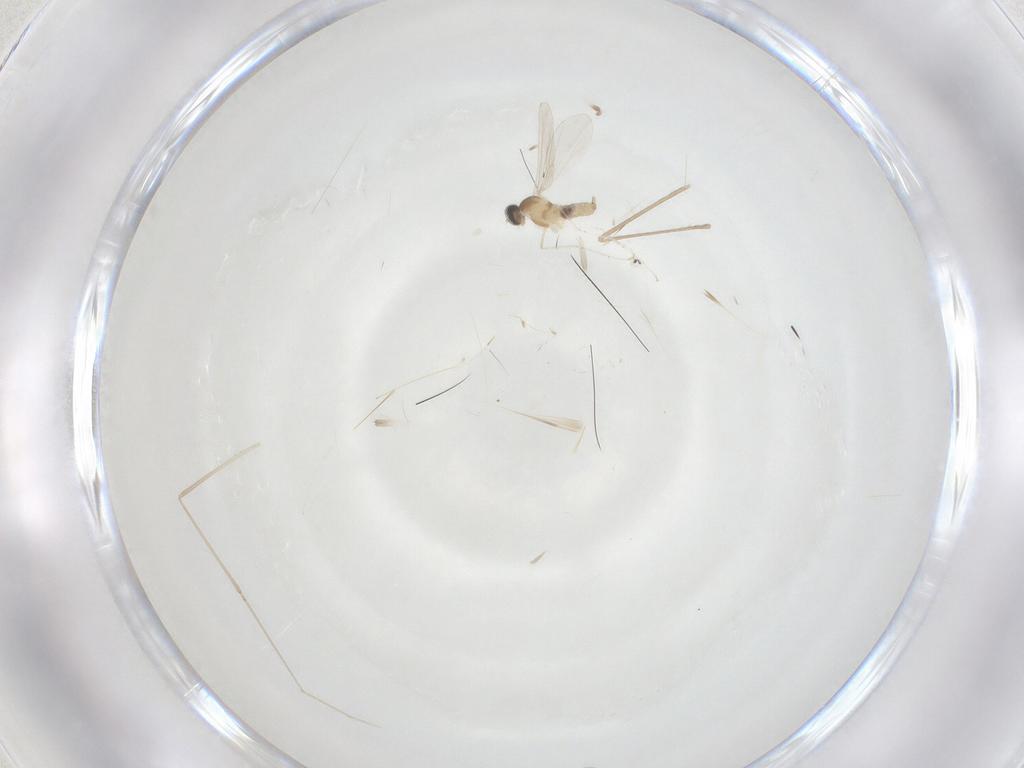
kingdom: Animalia
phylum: Arthropoda
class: Insecta
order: Diptera
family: Cecidomyiidae
